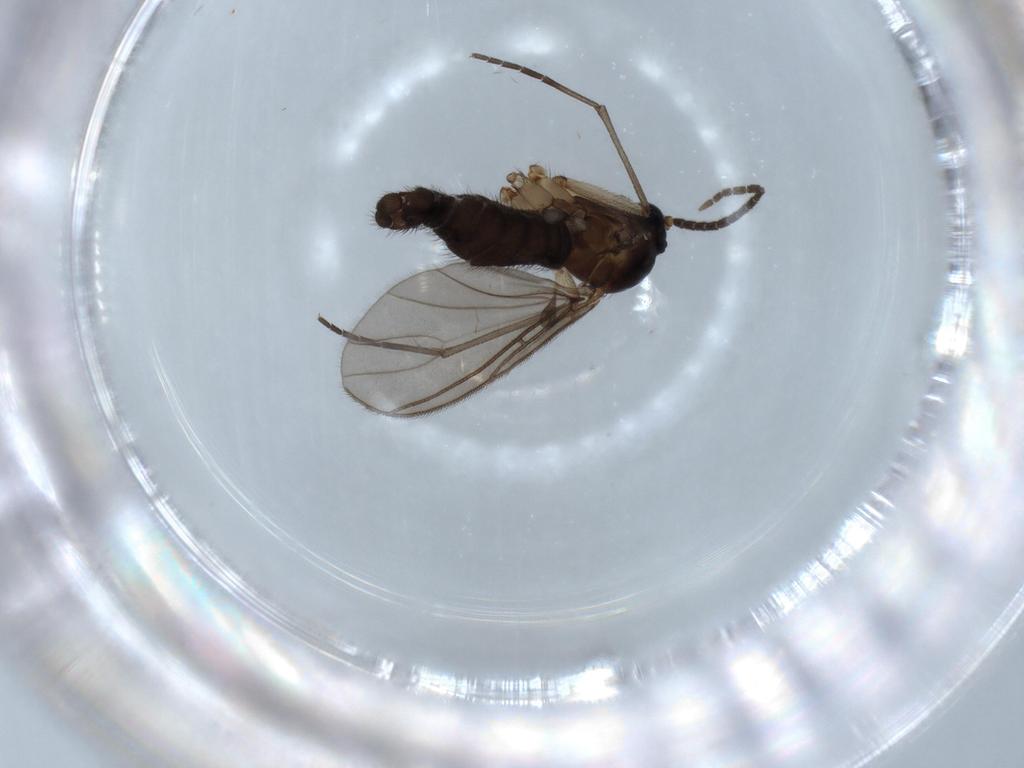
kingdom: Animalia
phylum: Arthropoda
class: Insecta
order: Diptera
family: Sciaridae
